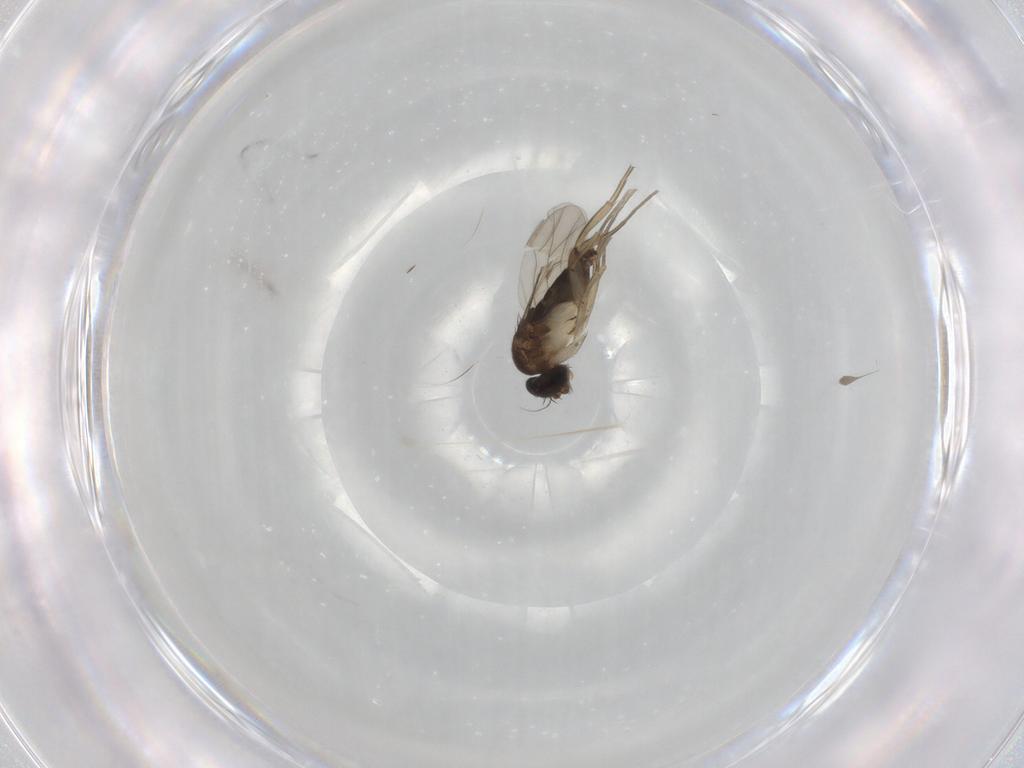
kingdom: Animalia
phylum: Arthropoda
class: Insecta
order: Diptera
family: Phoridae
